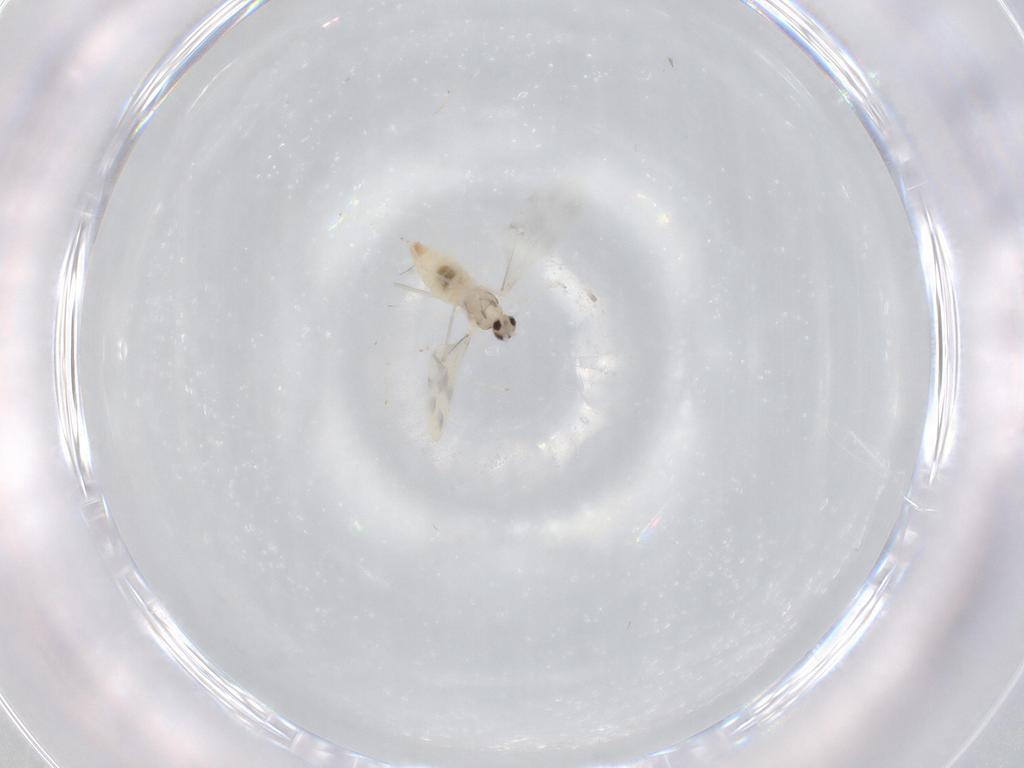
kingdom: Animalia
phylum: Arthropoda
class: Insecta
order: Diptera
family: Cecidomyiidae
